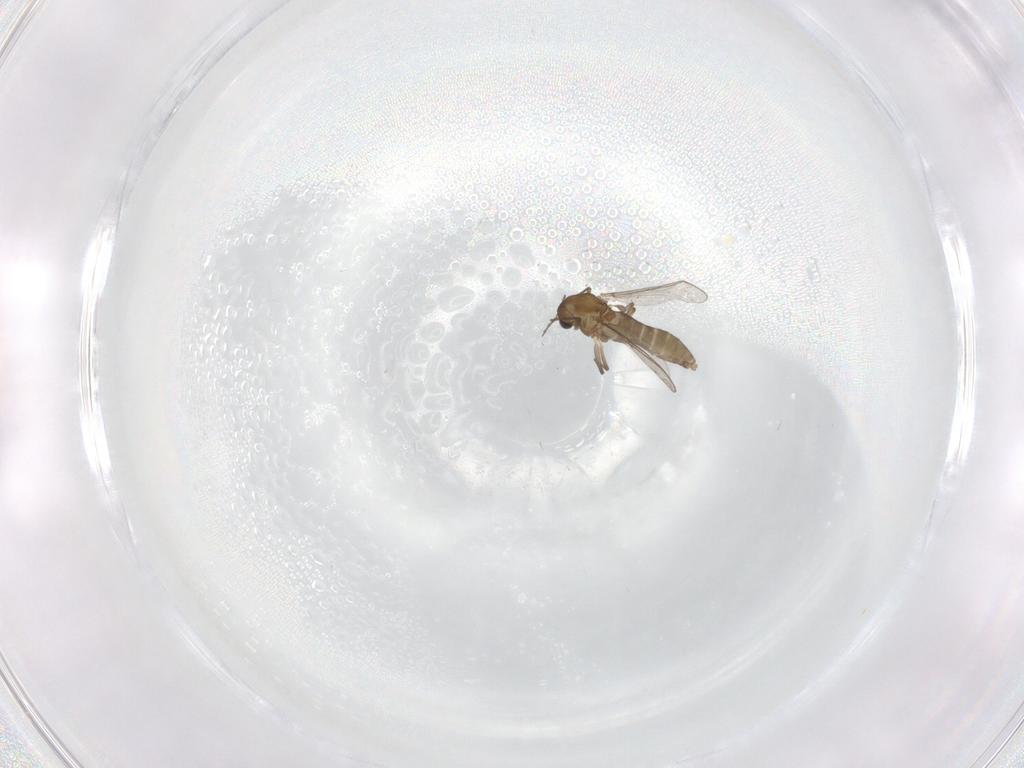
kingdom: Animalia
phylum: Arthropoda
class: Insecta
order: Diptera
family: Chironomidae
